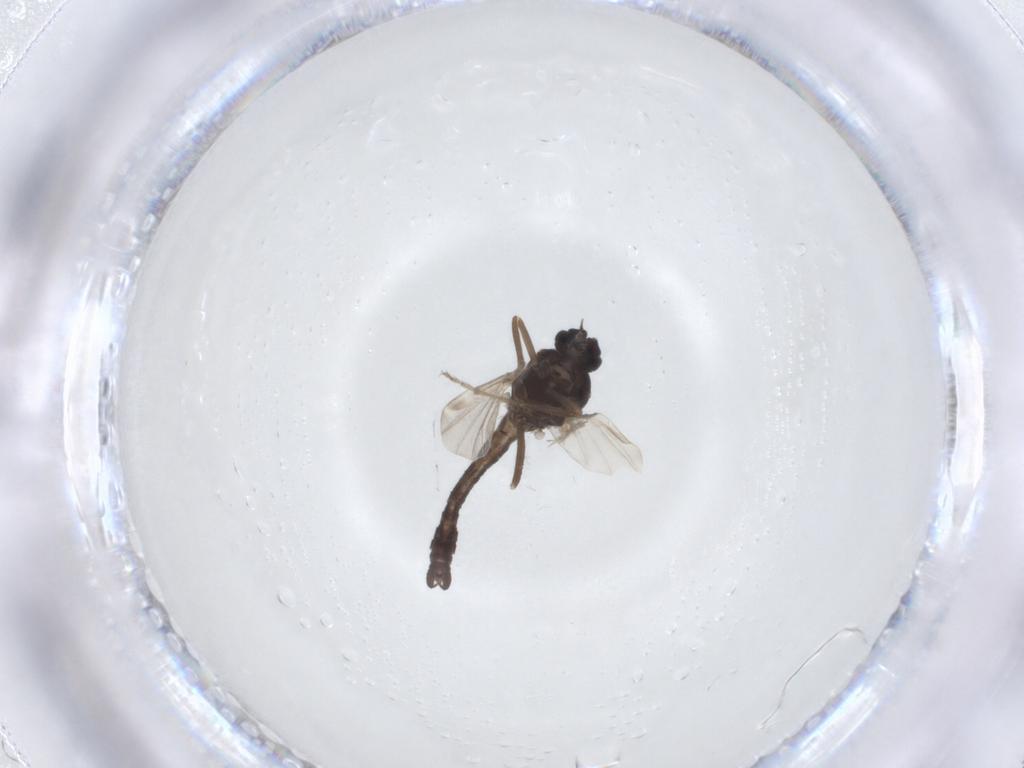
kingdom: Animalia
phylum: Arthropoda
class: Insecta
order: Diptera
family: Ceratopogonidae
